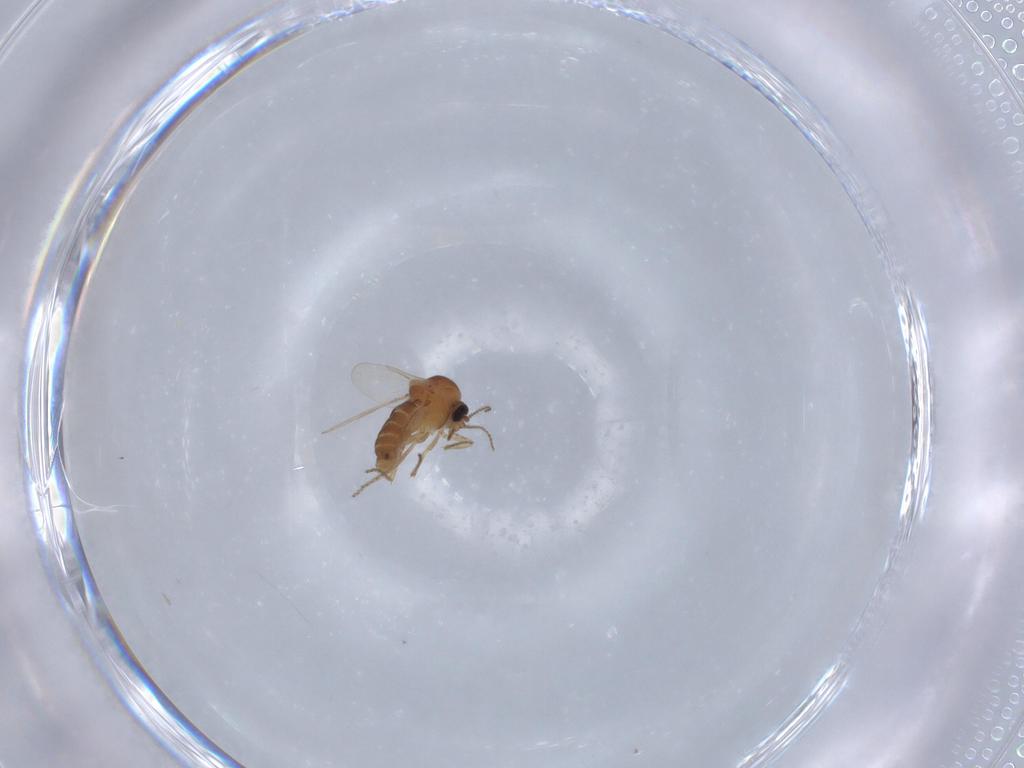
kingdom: Animalia
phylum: Arthropoda
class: Insecta
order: Diptera
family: Ceratopogonidae
